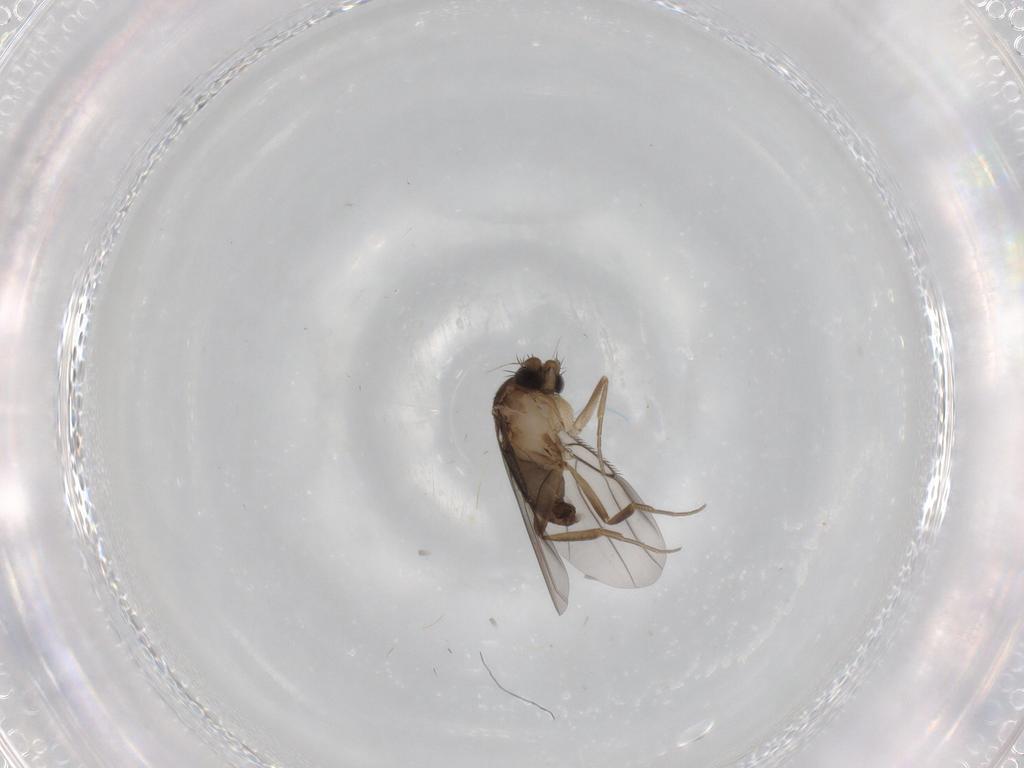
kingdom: Animalia
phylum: Arthropoda
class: Insecta
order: Diptera
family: Phoridae
